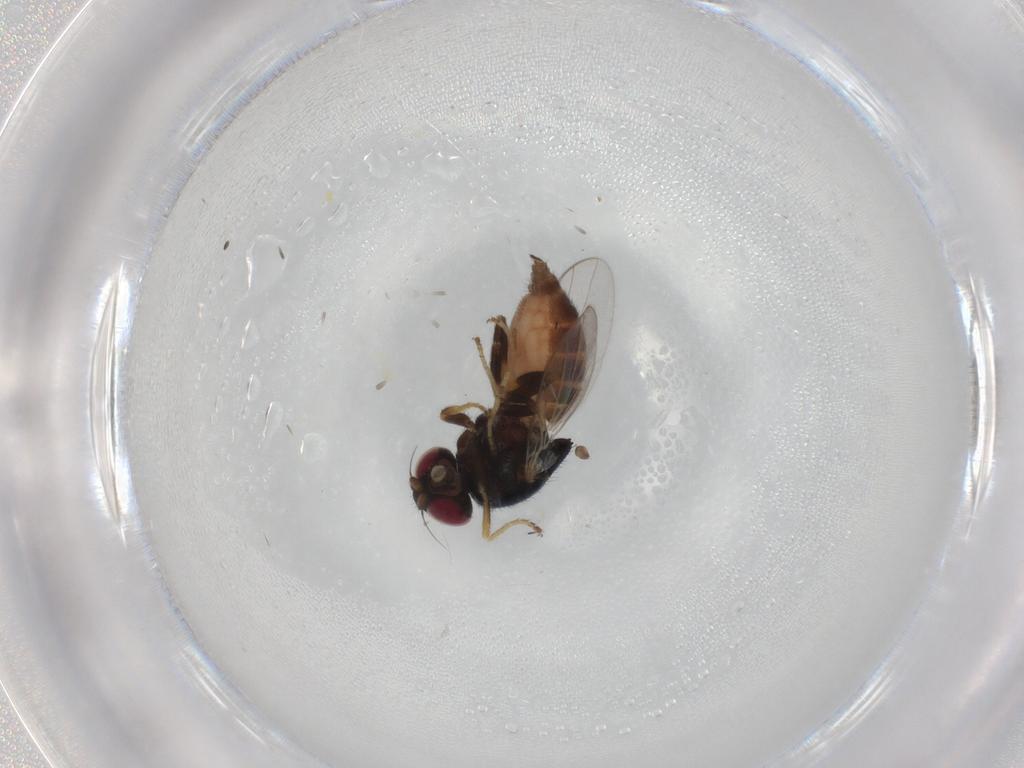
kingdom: Animalia
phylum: Arthropoda
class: Insecta
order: Diptera
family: Chloropidae
